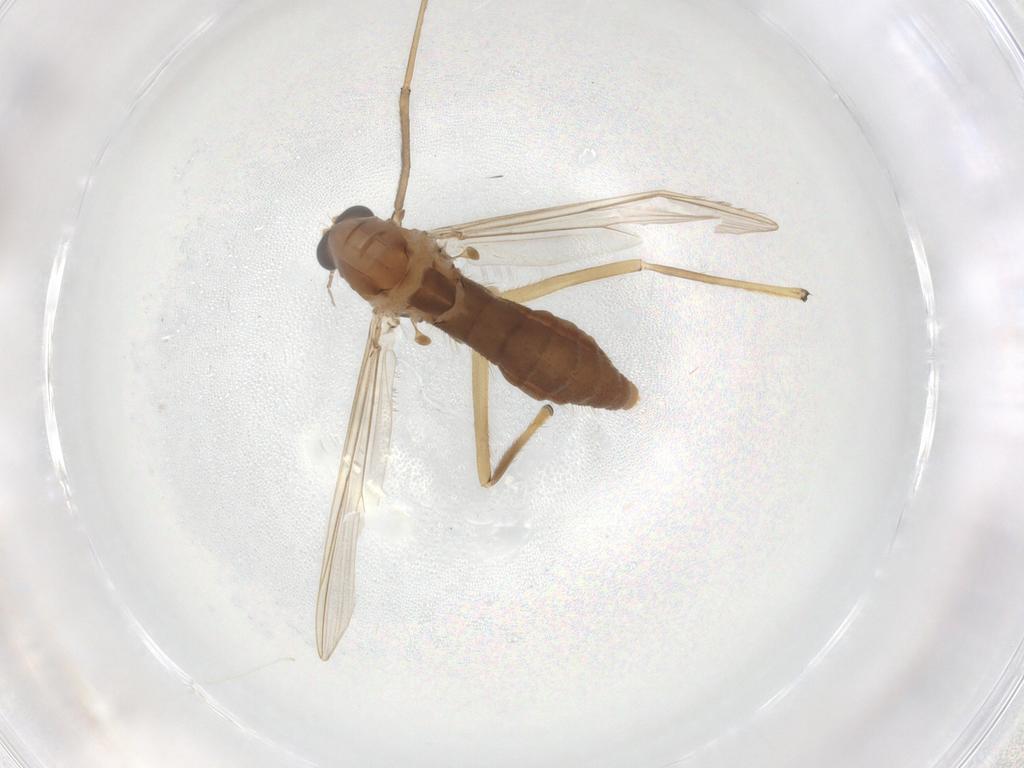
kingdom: Animalia
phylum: Arthropoda
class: Insecta
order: Diptera
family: Chironomidae
